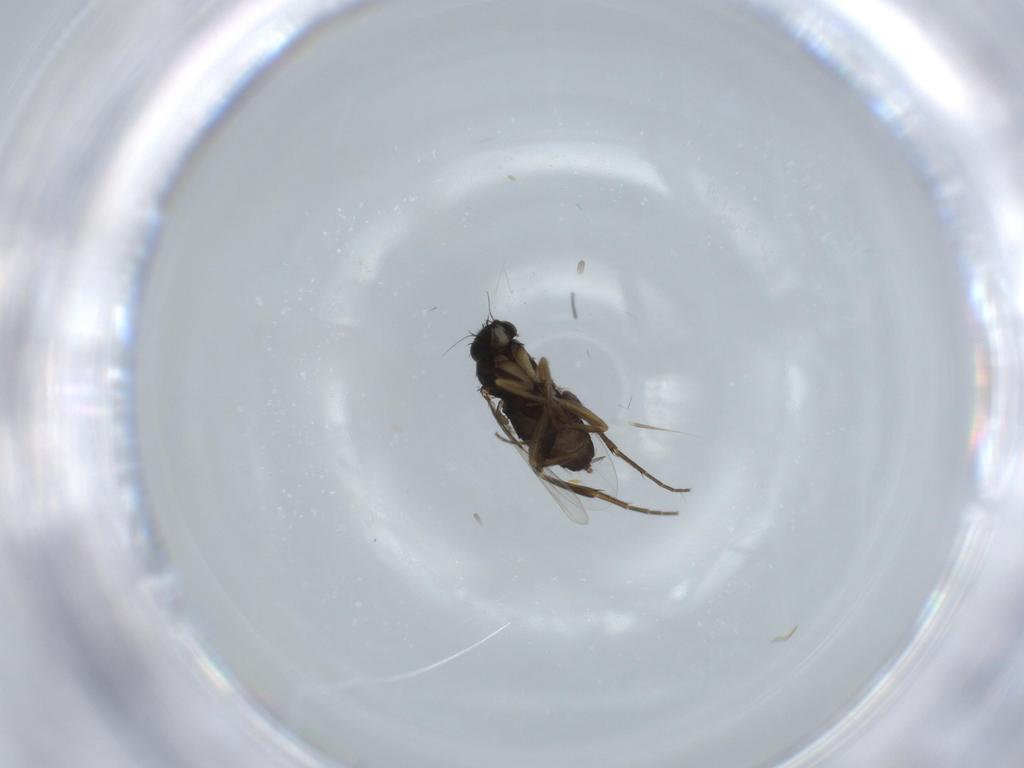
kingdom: Animalia
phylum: Arthropoda
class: Insecta
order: Diptera
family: Phoridae
